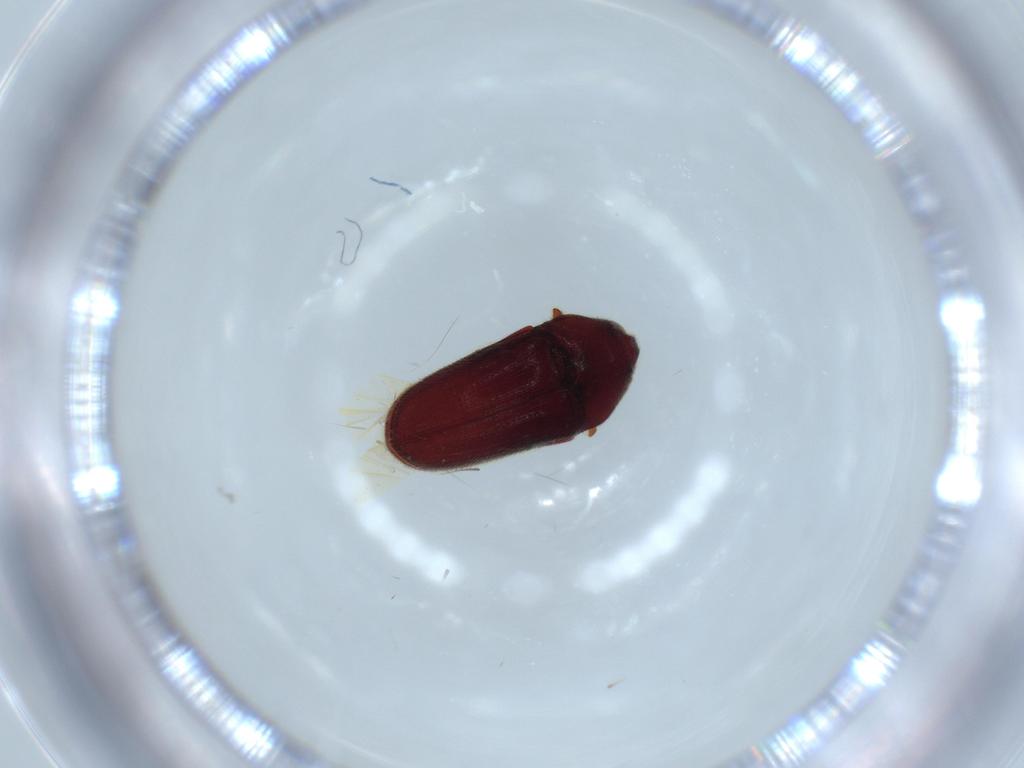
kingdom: Animalia
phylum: Arthropoda
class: Insecta
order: Coleoptera
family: Throscidae
